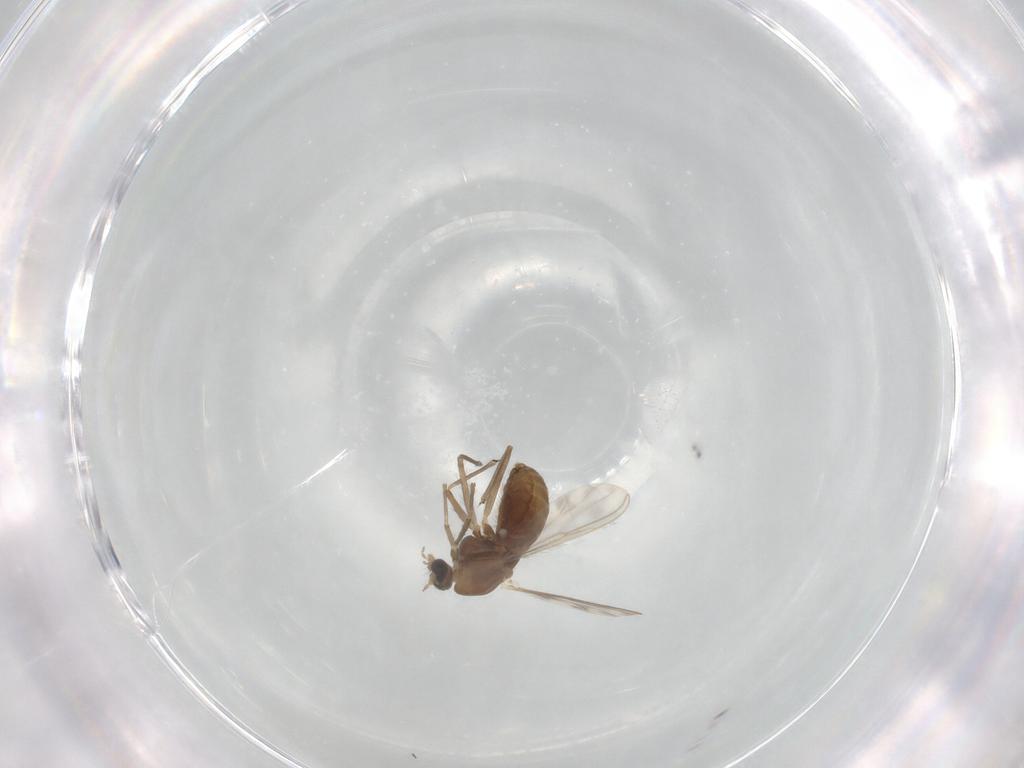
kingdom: Animalia
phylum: Arthropoda
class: Insecta
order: Diptera
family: Chironomidae
